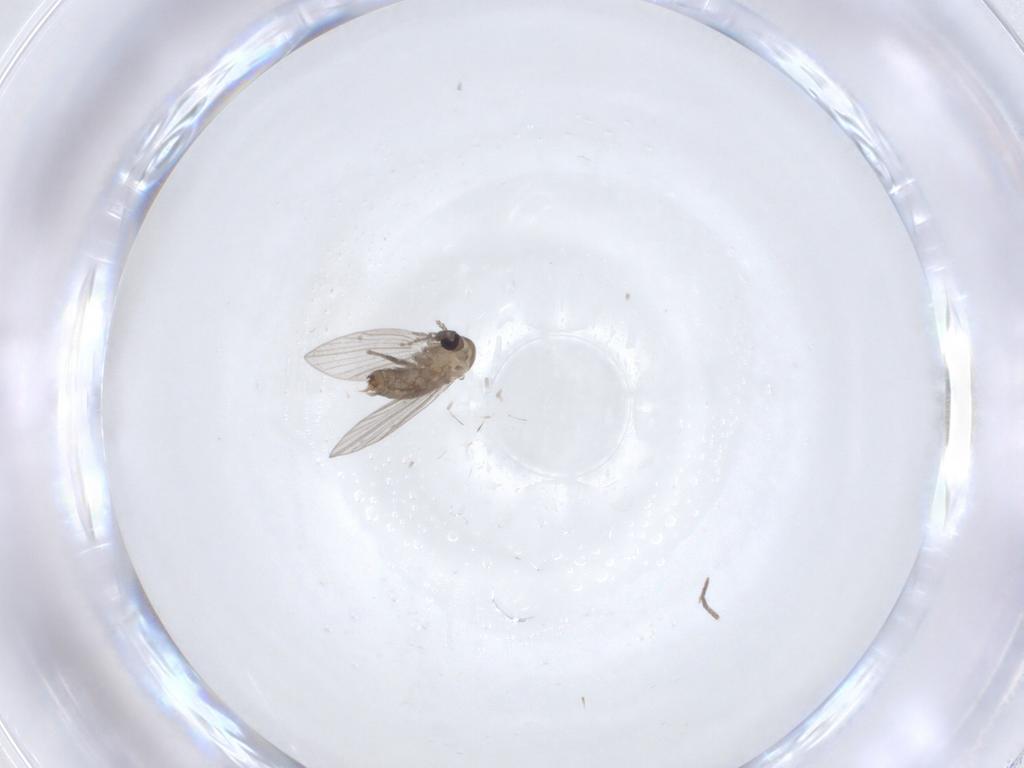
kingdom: Animalia
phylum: Arthropoda
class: Insecta
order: Diptera
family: Psychodidae
